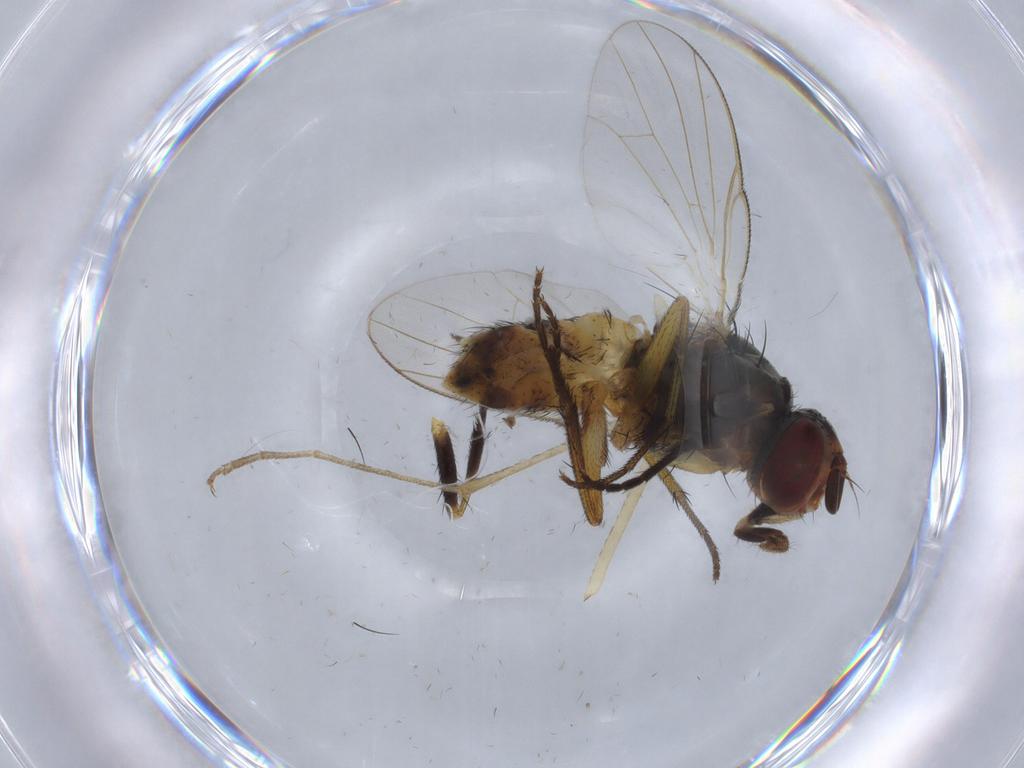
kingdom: Animalia
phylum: Arthropoda
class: Insecta
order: Diptera
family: Muscidae
